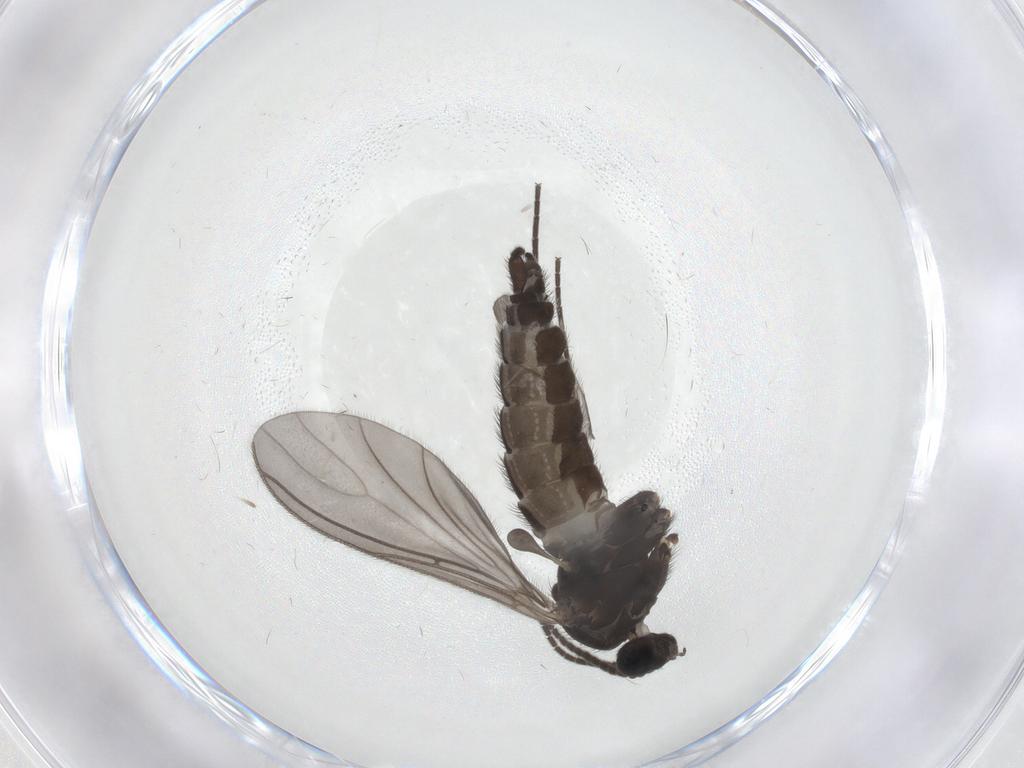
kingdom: Animalia
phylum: Arthropoda
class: Insecta
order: Diptera
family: Sciaridae
